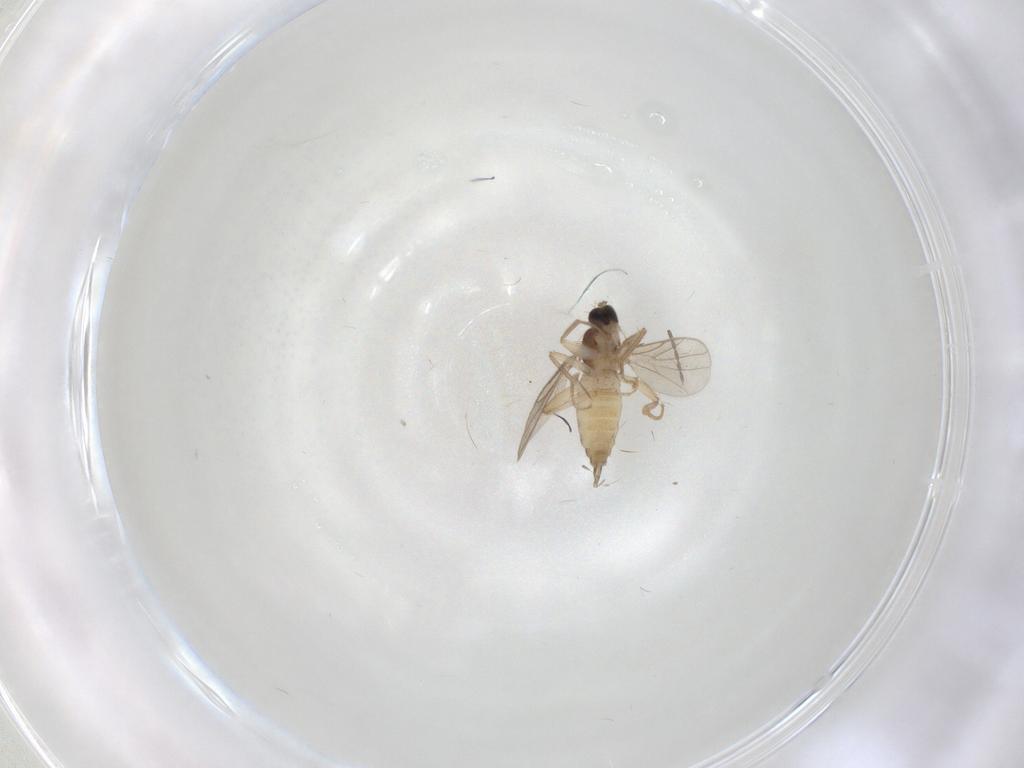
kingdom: Animalia
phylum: Arthropoda
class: Insecta
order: Diptera
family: Hybotidae
